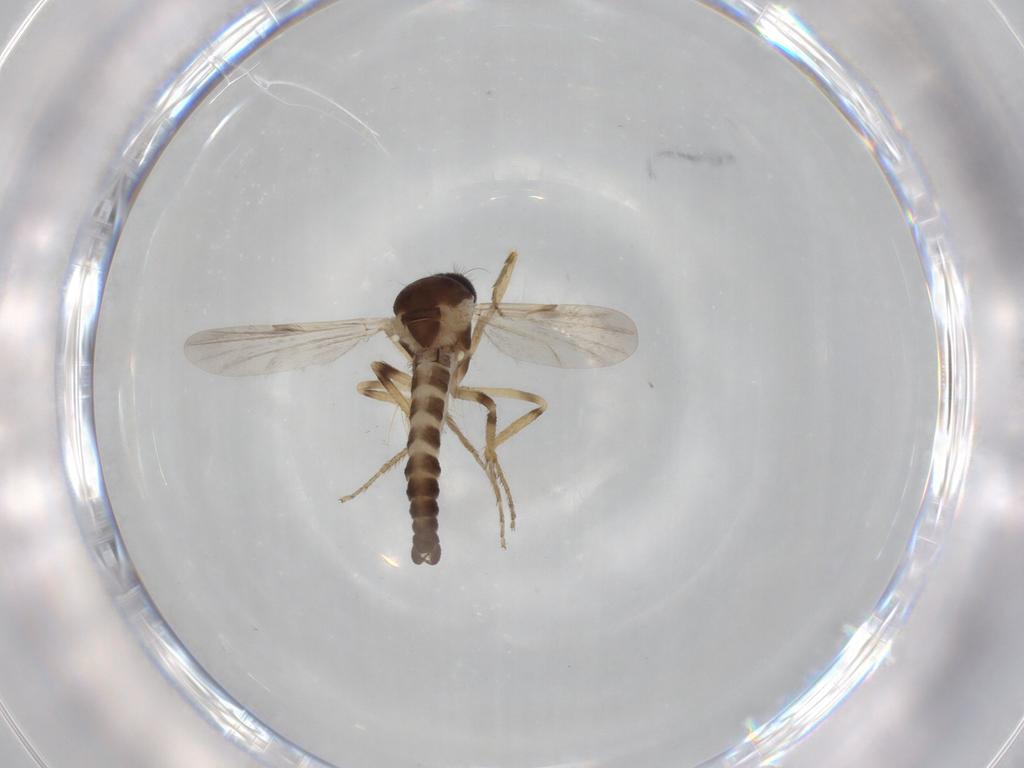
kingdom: Animalia
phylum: Arthropoda
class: Insecta
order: Diptera
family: Ceratopogonidae
